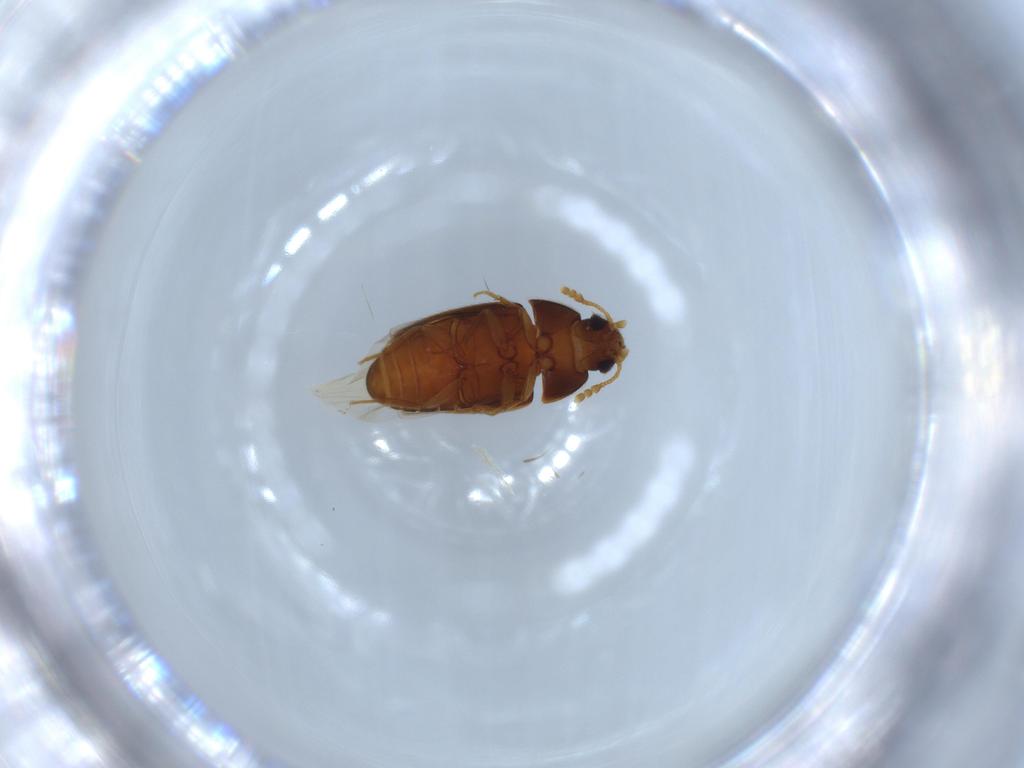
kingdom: Animalia
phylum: Arthropoda
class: Insecta
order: Coleoptera
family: Mycetophagidae
